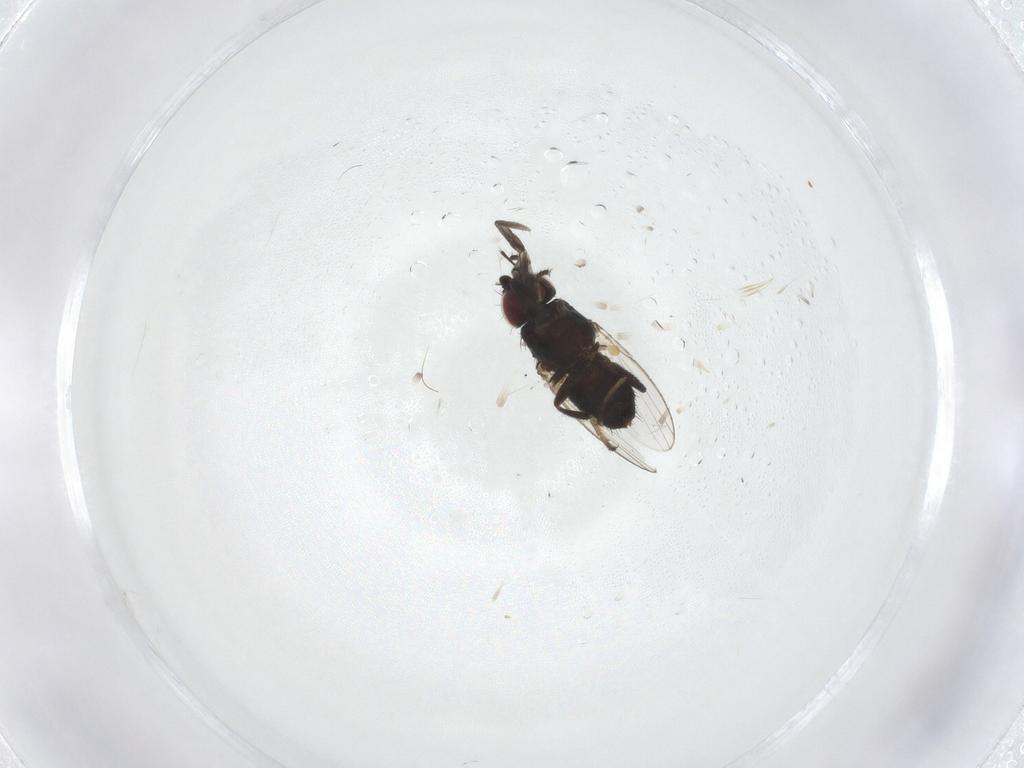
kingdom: Animalia
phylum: Arthropoda
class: Insecta
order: Diptera
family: Milichiidae
